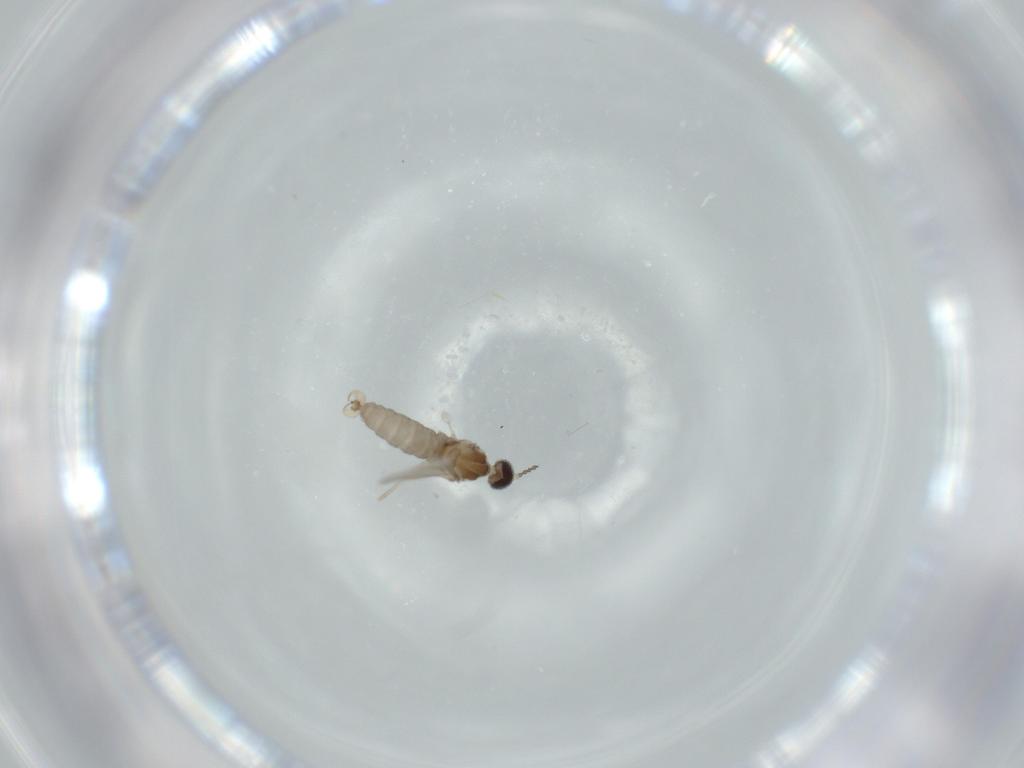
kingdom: Animalia
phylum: Arthropoda
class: Insecta
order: Diptera
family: Cecidomyiidae
